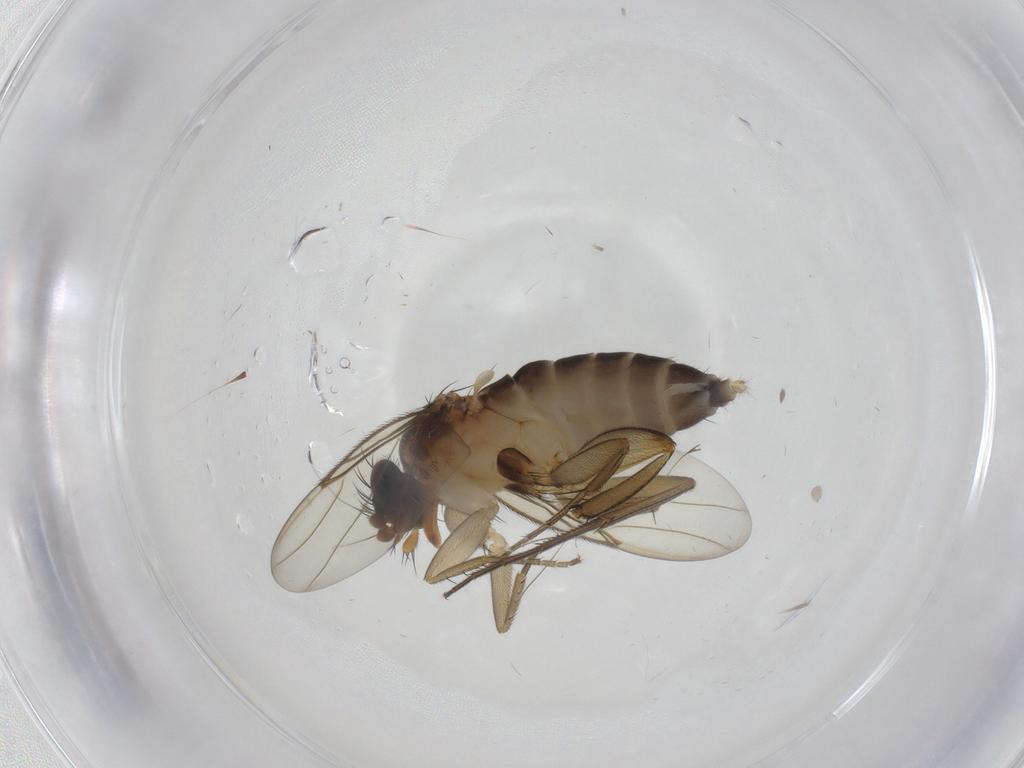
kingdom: Animalia
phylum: Arthropoda
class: Insecta
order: Diptera
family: Phoridae
